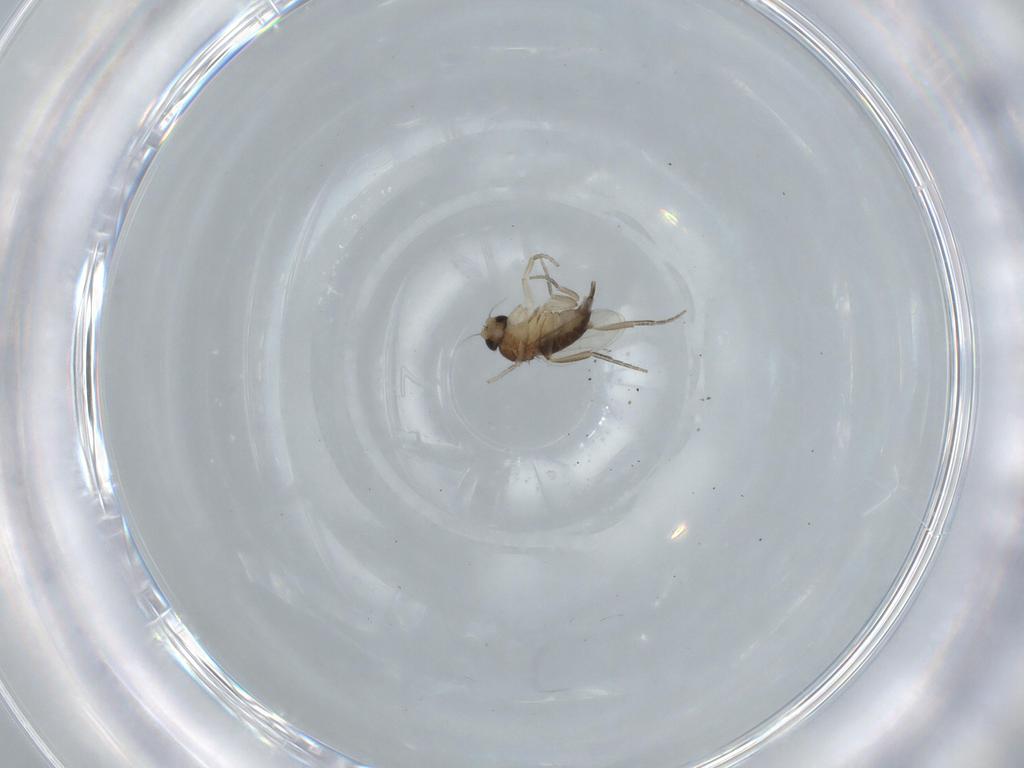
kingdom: Animalia
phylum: Arthropoda
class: Insecta
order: Diptera
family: Phoridae
